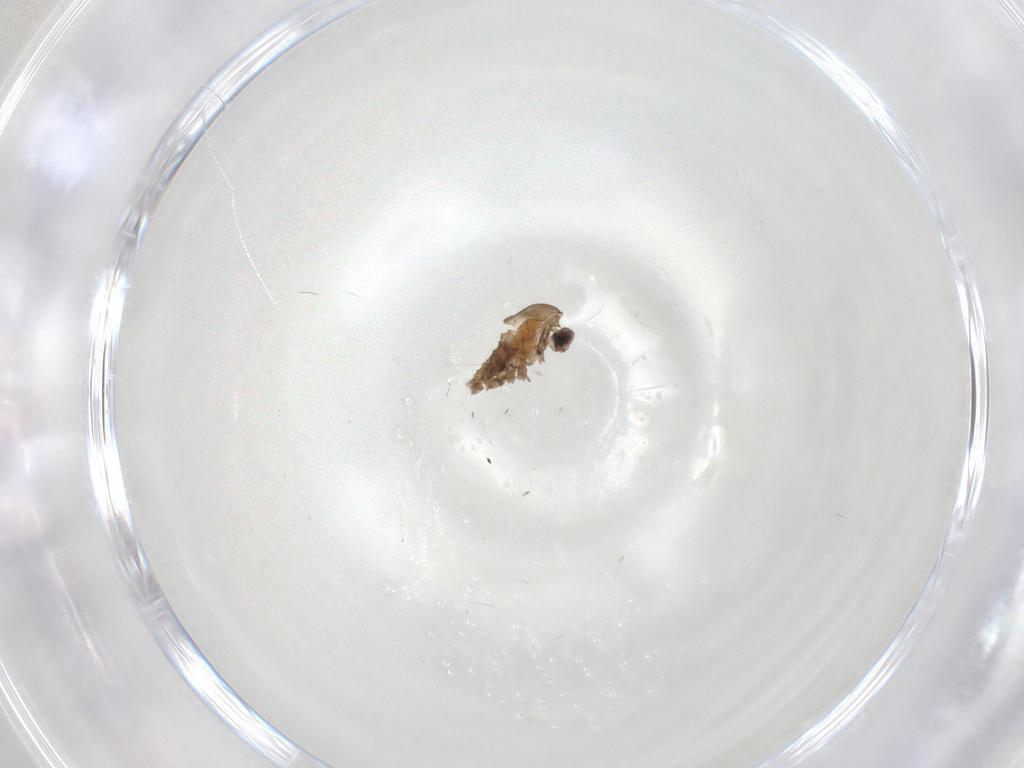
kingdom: Animalia
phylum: Arthropoda
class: Insecta
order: Diptera
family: Cecidomyiidae
